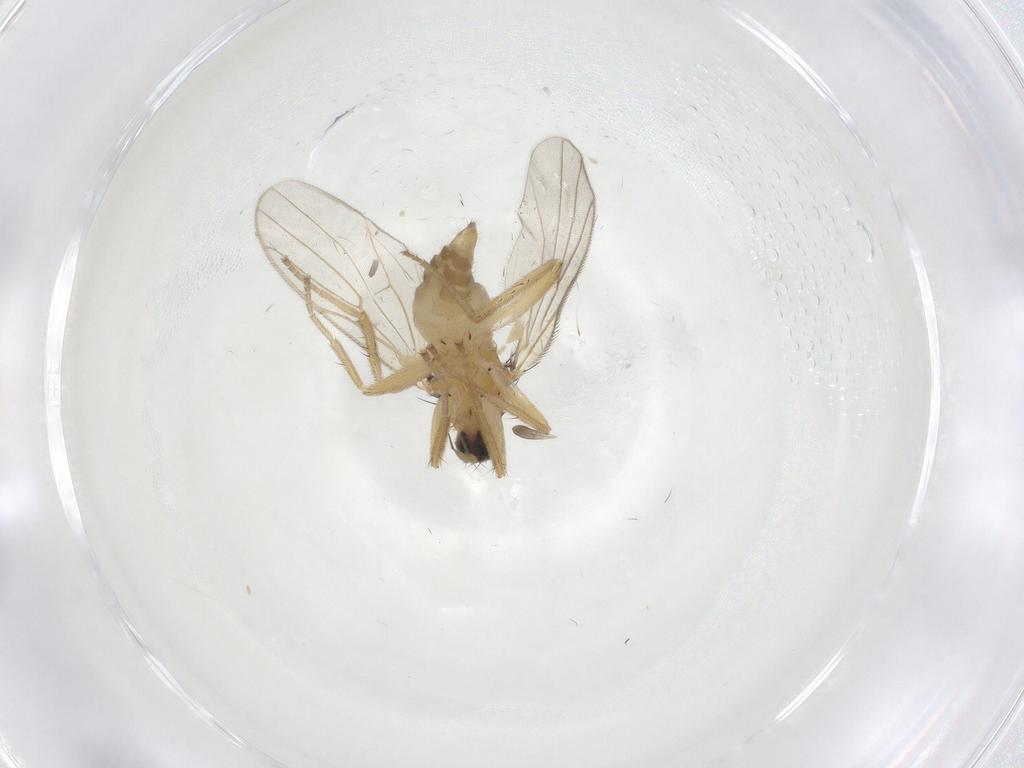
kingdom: Animalia
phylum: Arthropoda
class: Insecta
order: Diptera
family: Hybotidae
